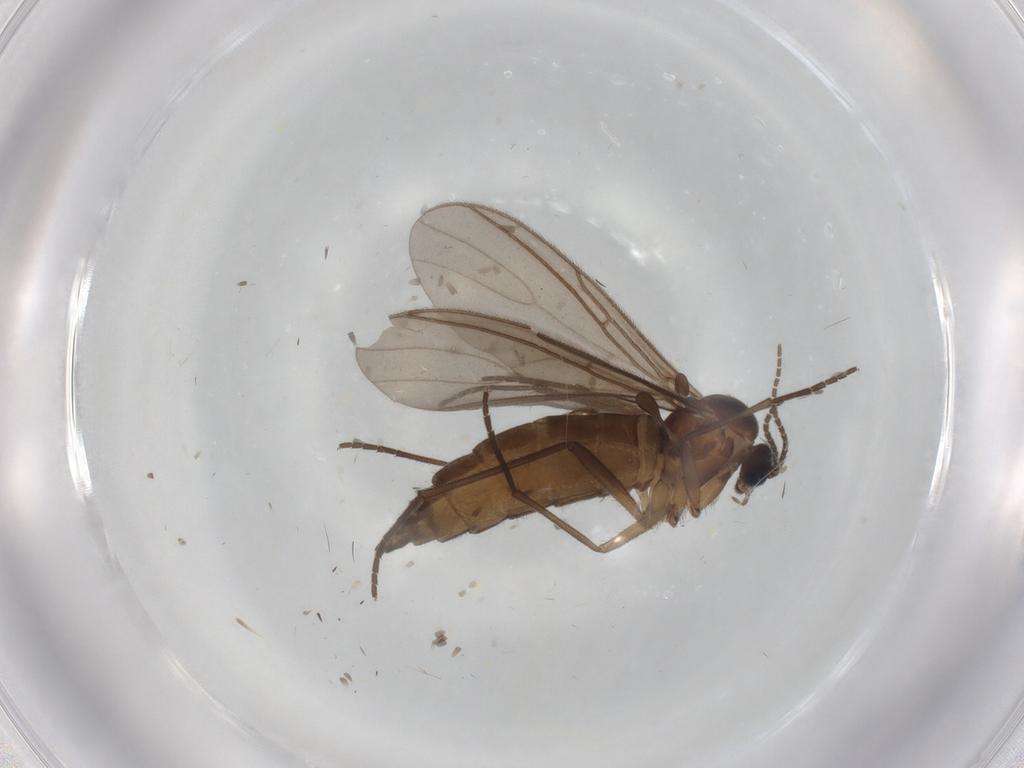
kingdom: Animalia
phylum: Arthropoda
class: Insecta
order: Diptera
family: Sciaridae
